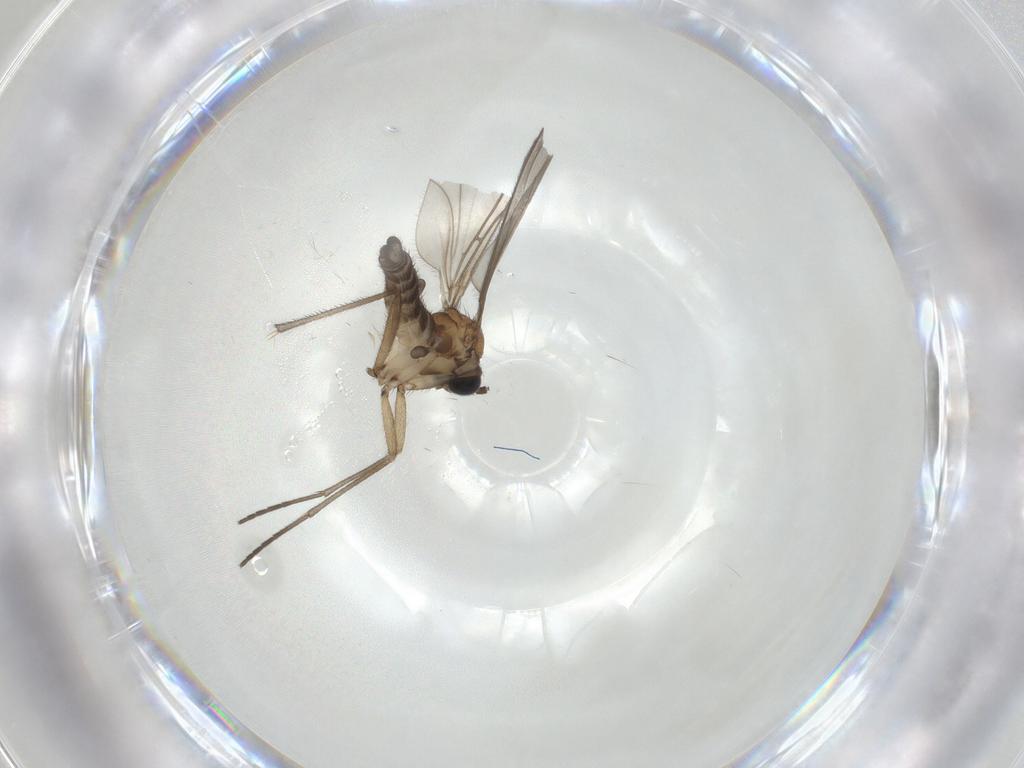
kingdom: Animalia
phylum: Arthropoda
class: Insecta
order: Diptera
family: Sciaridae
